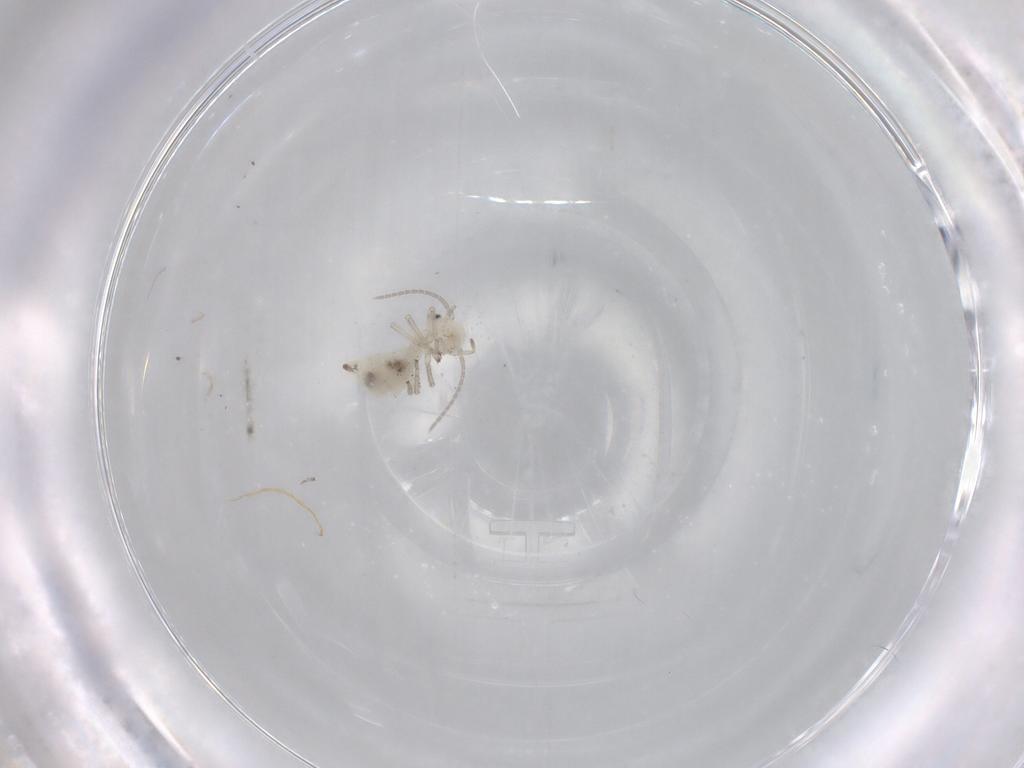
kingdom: Animalia
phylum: Arthropoda
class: Insecta
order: Psocodea
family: Caeciliusidae
